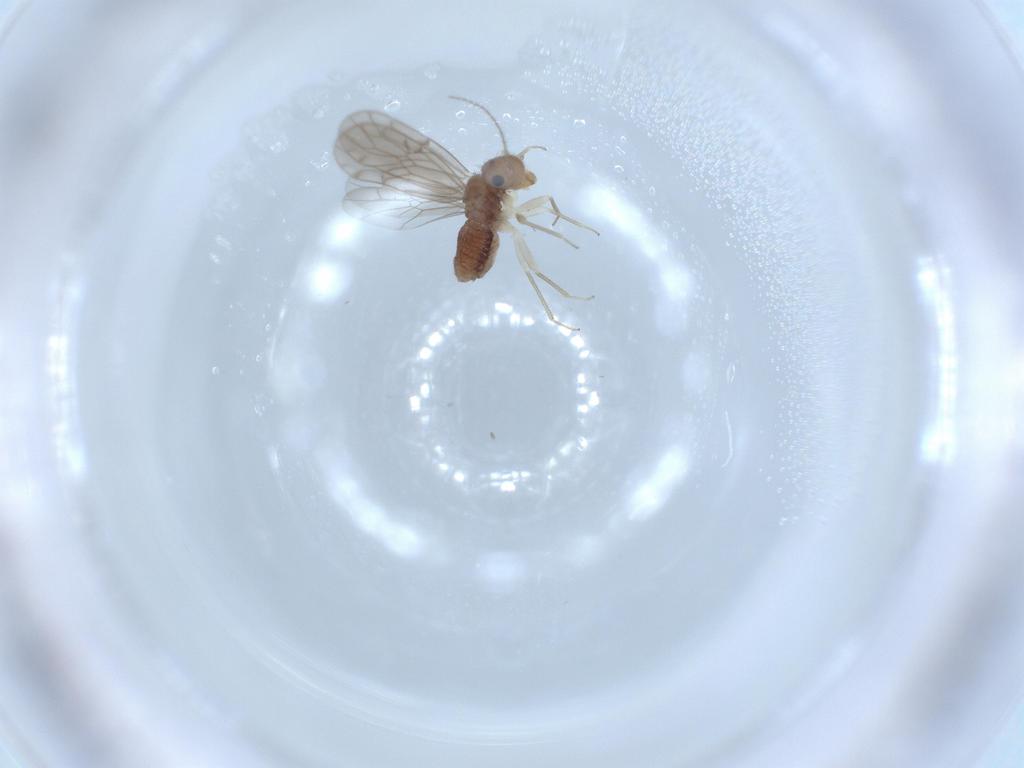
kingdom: Animalia
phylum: Arthropoda
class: Insecta
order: Psocodea
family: Ectopsocidae
